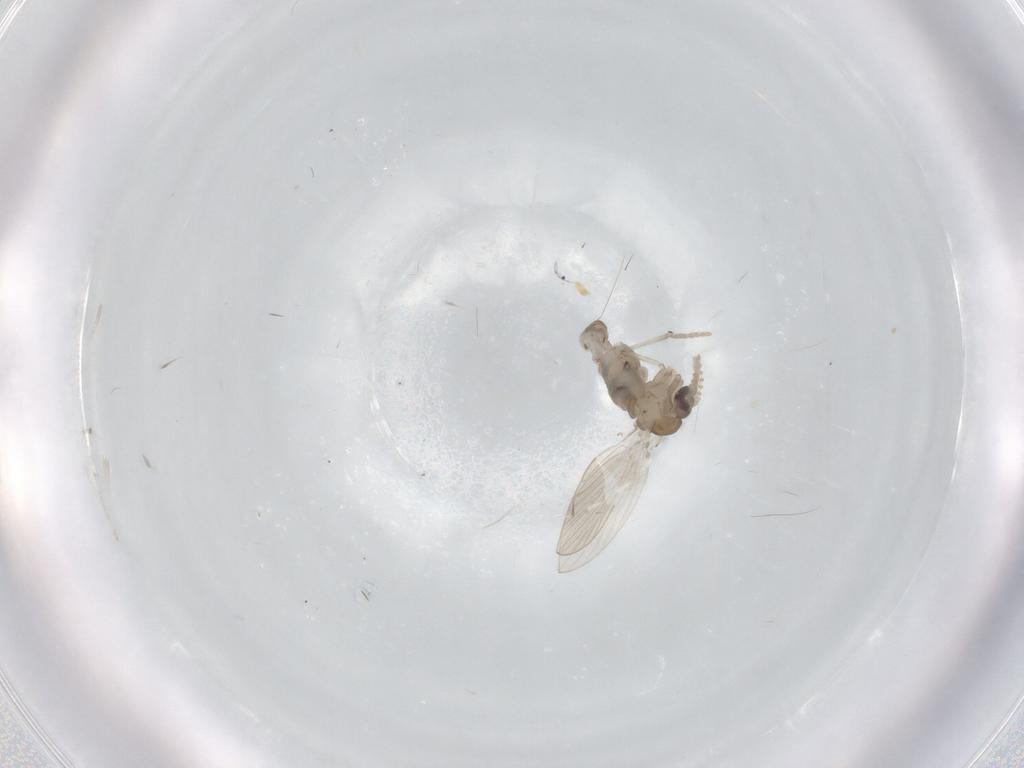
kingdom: Animalia
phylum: Arthropoda
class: Insecta
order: Diptera
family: Psychodidae
